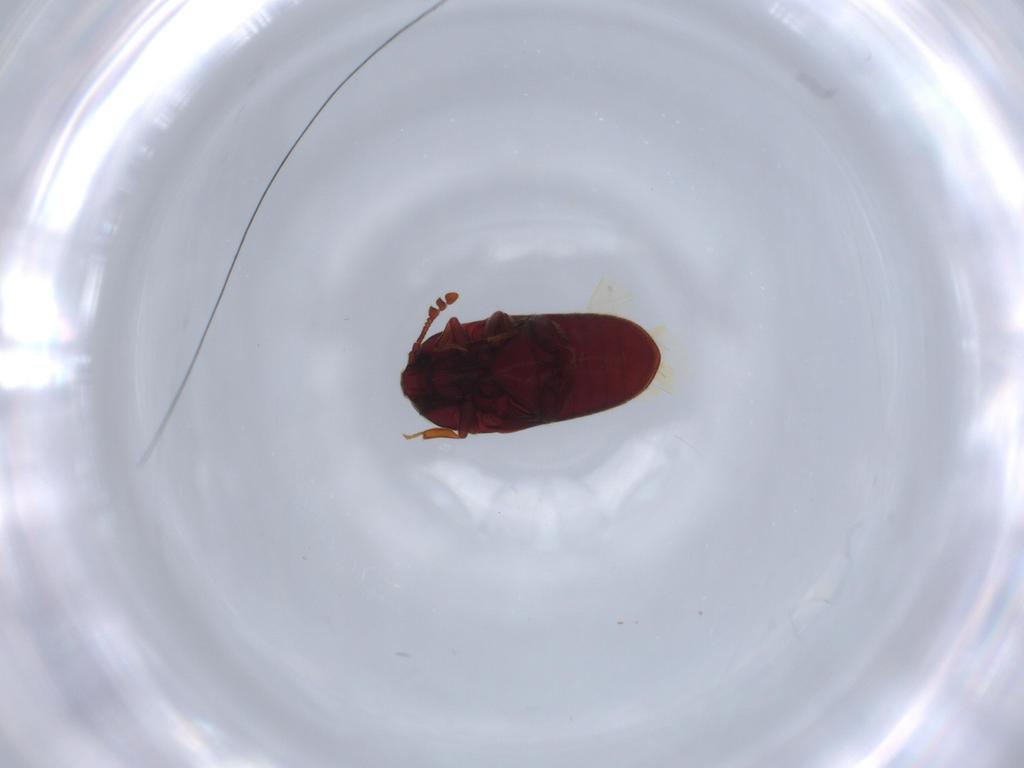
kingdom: Animalia
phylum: Arthropoda
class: Insecta
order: Coleoptera
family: Throscidae
